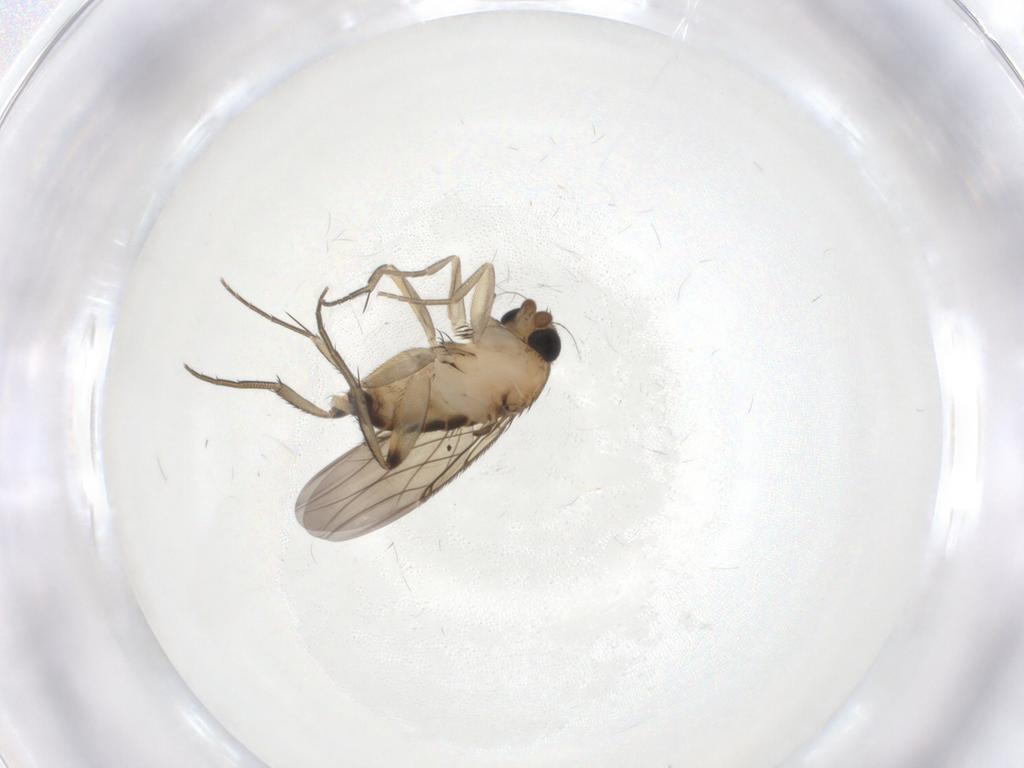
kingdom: Animalia
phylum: Arthropoda
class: Insecta
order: Diptera
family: Phoridae
